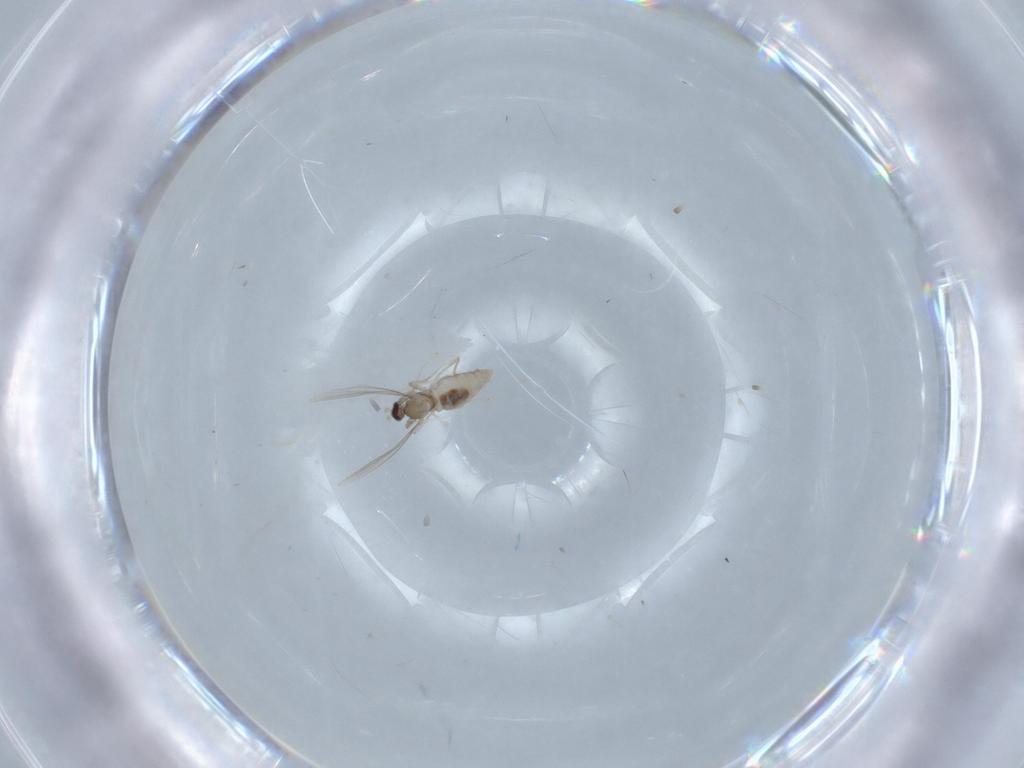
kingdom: Animalia
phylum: Arthropoda
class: Insecta
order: Diptera
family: Cecidomyiidae
